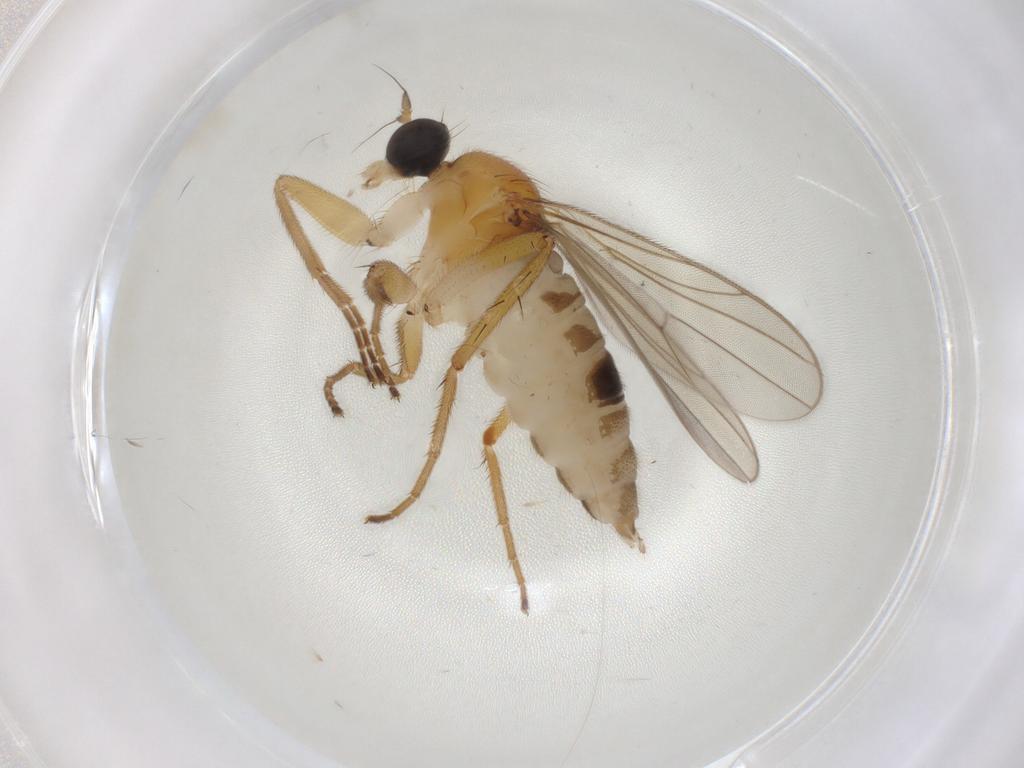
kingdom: Animalia
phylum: Arthropoda
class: Insecta
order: Diptera
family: Hybotidae
